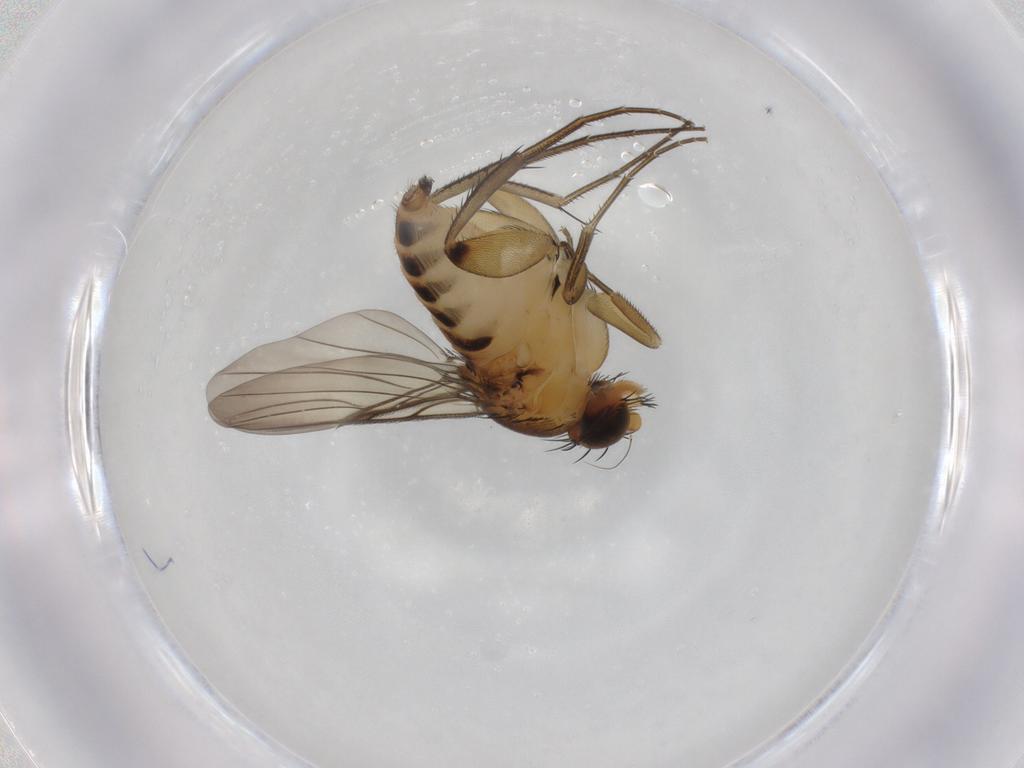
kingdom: Animalia
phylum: Arthropoda
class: Insecta
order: Diptera
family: Phoridae
